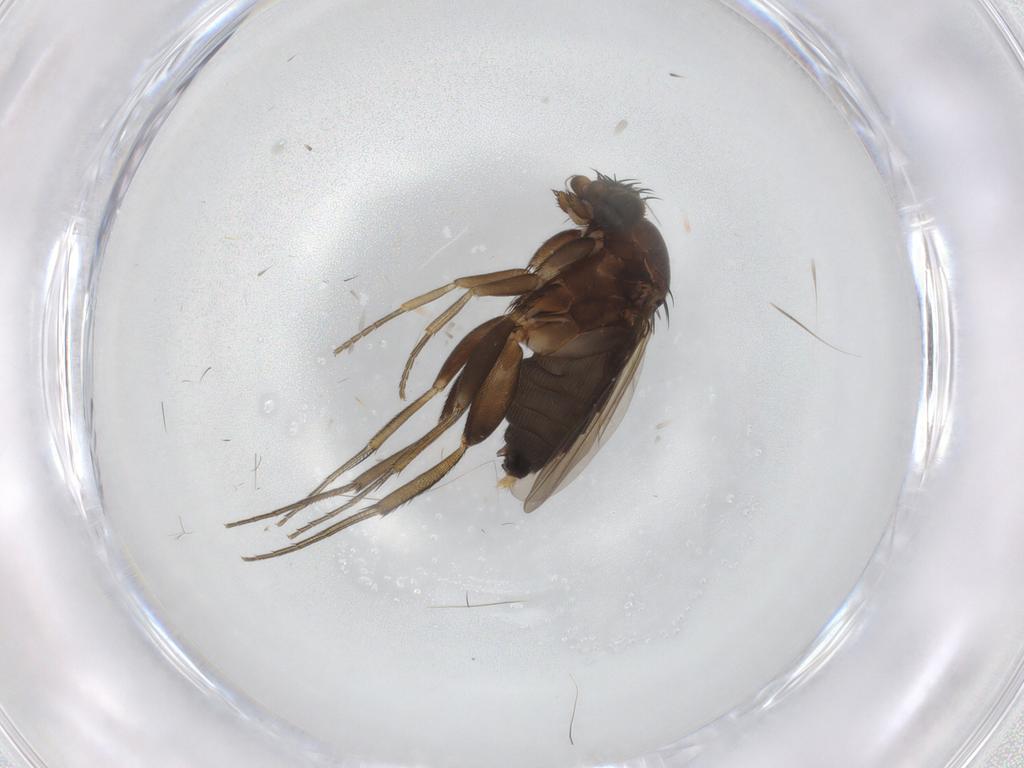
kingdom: Animalia
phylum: Arthropoda
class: Insecta
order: Diptera
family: Phoridae
